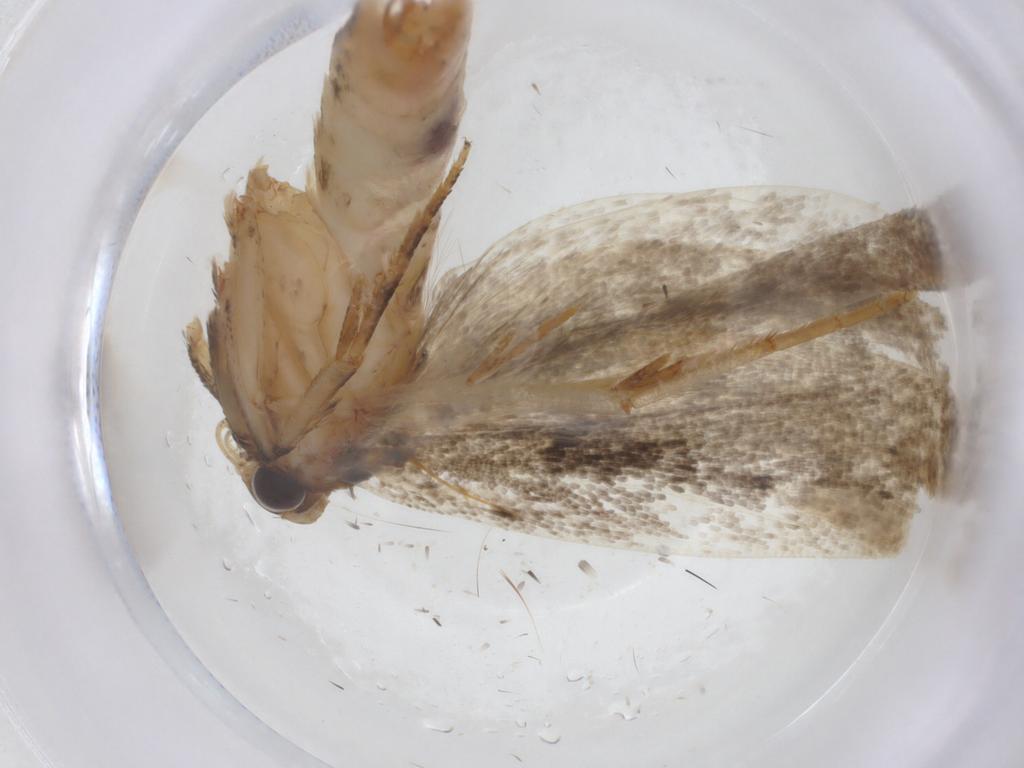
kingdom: Animalia
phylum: Arthropoda
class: Insecta
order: Lepidoptera
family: Gelechiidae
